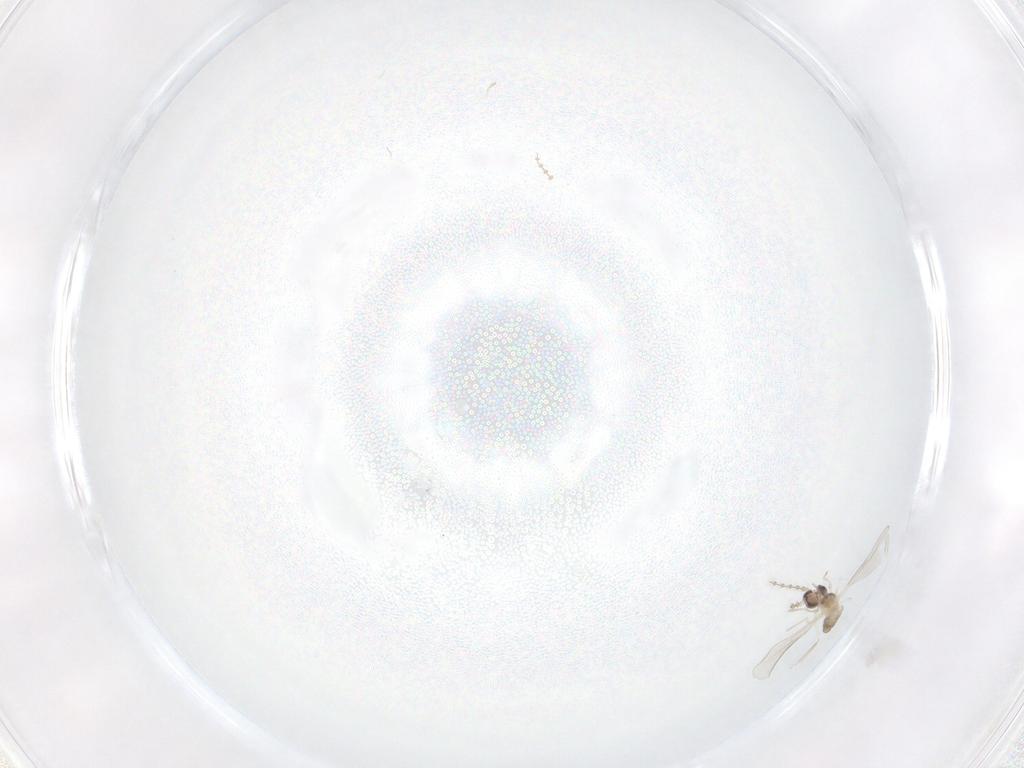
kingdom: Animalia
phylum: Arthropoda
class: Insecta
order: Diptera
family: Cecidomyiidae
